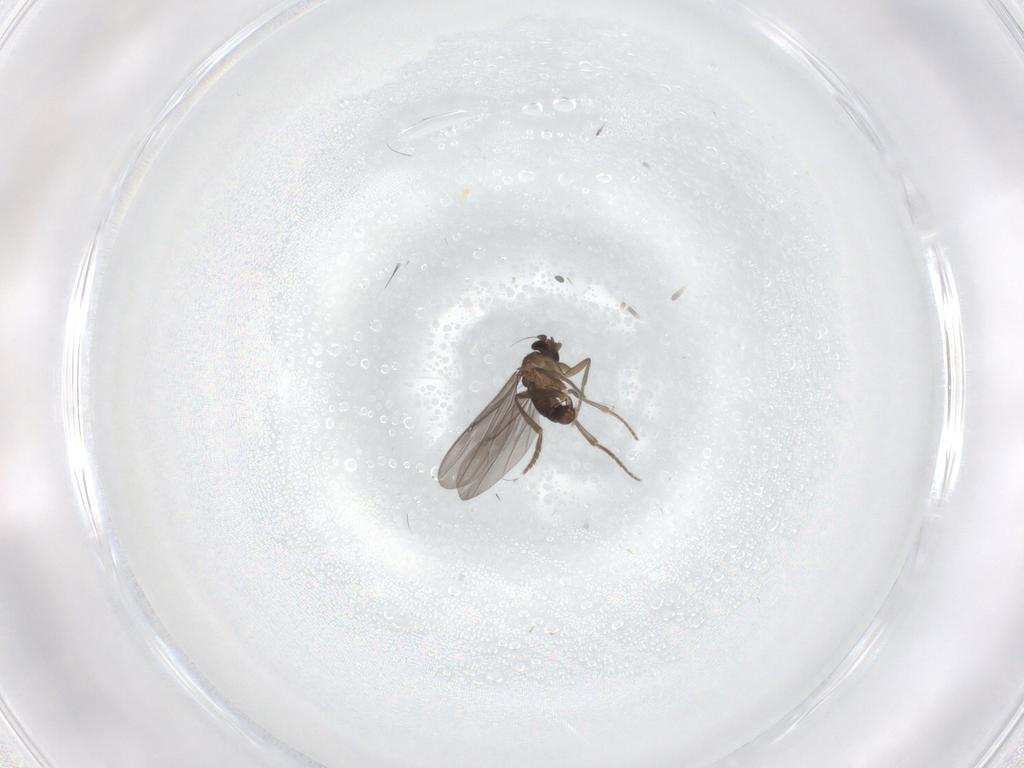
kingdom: Animalia
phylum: Arthropoda
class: Insecta
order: Diptera
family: Phoridae
